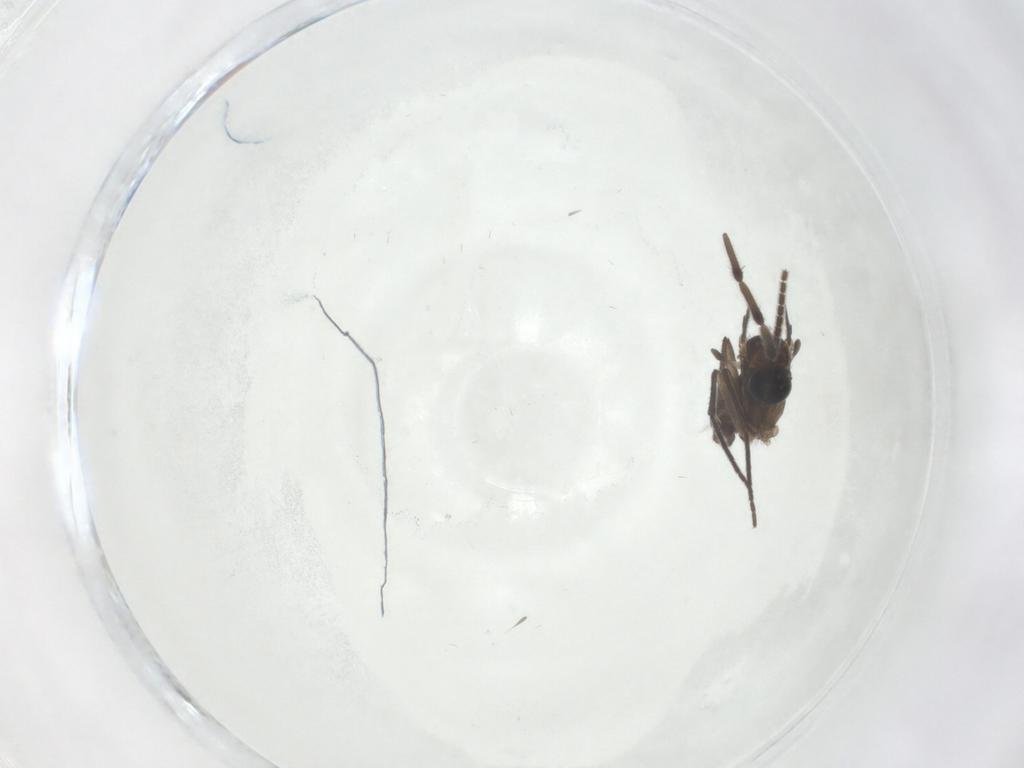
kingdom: Animalia
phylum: Arthropoda
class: Insecta
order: Diptera
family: Sciaridae
